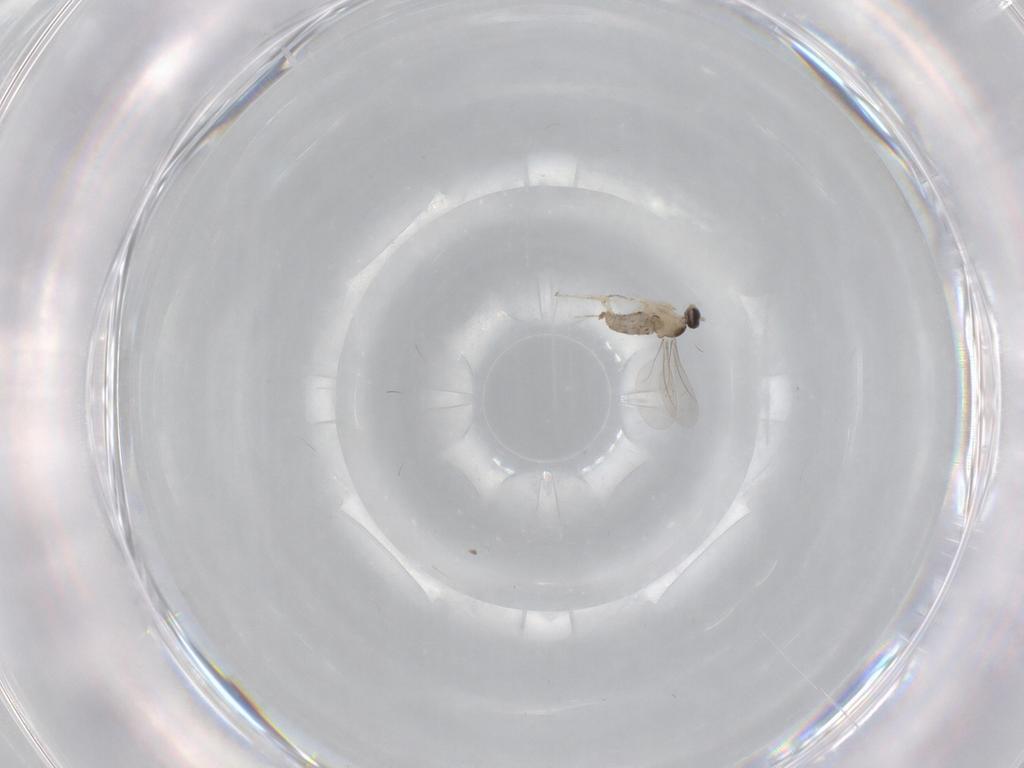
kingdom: Animalia
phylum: Arthropoda
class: Insecta
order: Diptera
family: Cecidomyiidae
